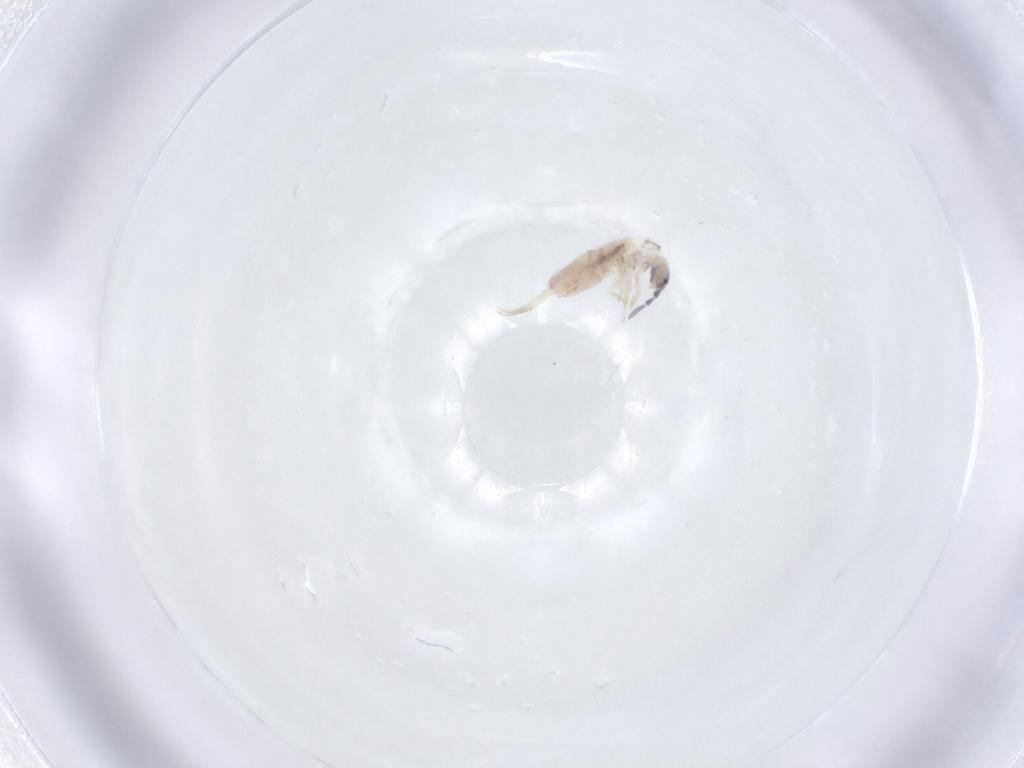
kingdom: Animalia
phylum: Arthropoda
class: Collembola
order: Entomobryomorpha
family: Entomobryidae
